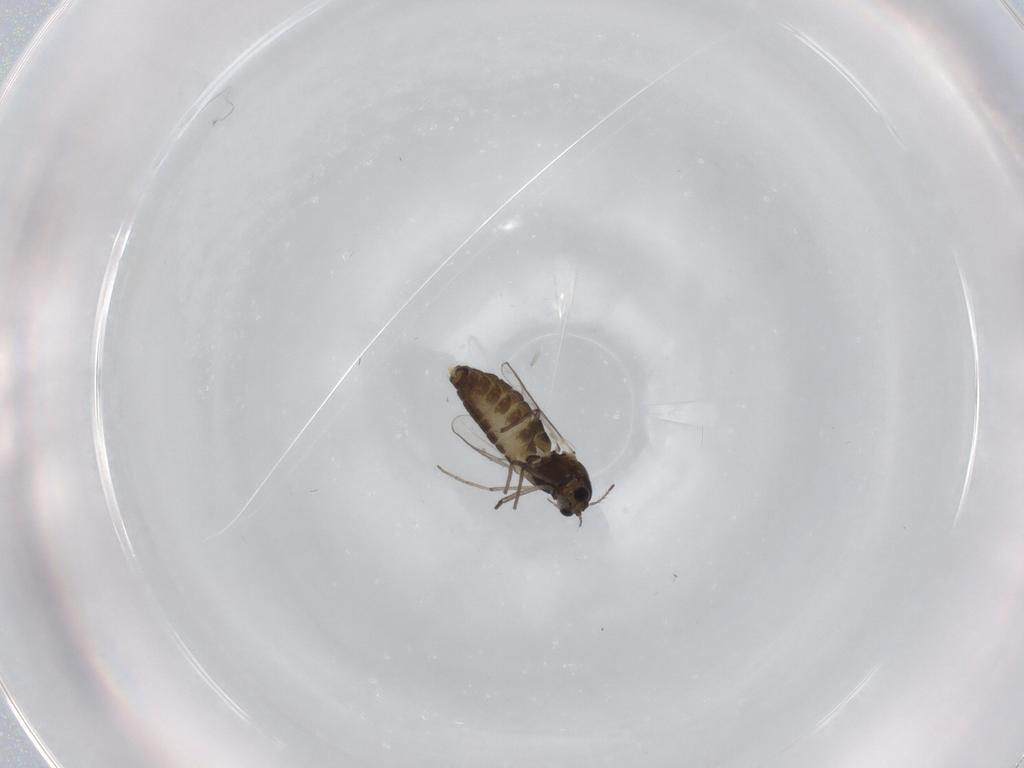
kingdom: Animalia
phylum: Arthropoda
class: Insecta
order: Diptera
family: Chironomidae
